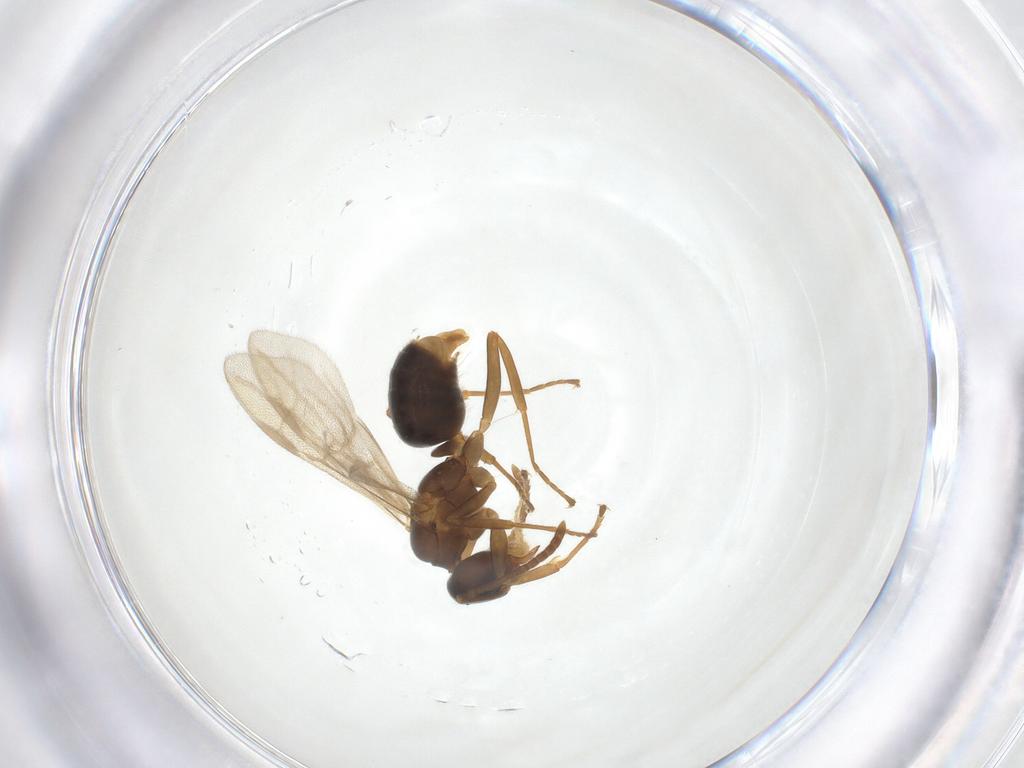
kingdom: Animalia
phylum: Arthropoda
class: Insecta
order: Hymenoptera
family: Formicidae
